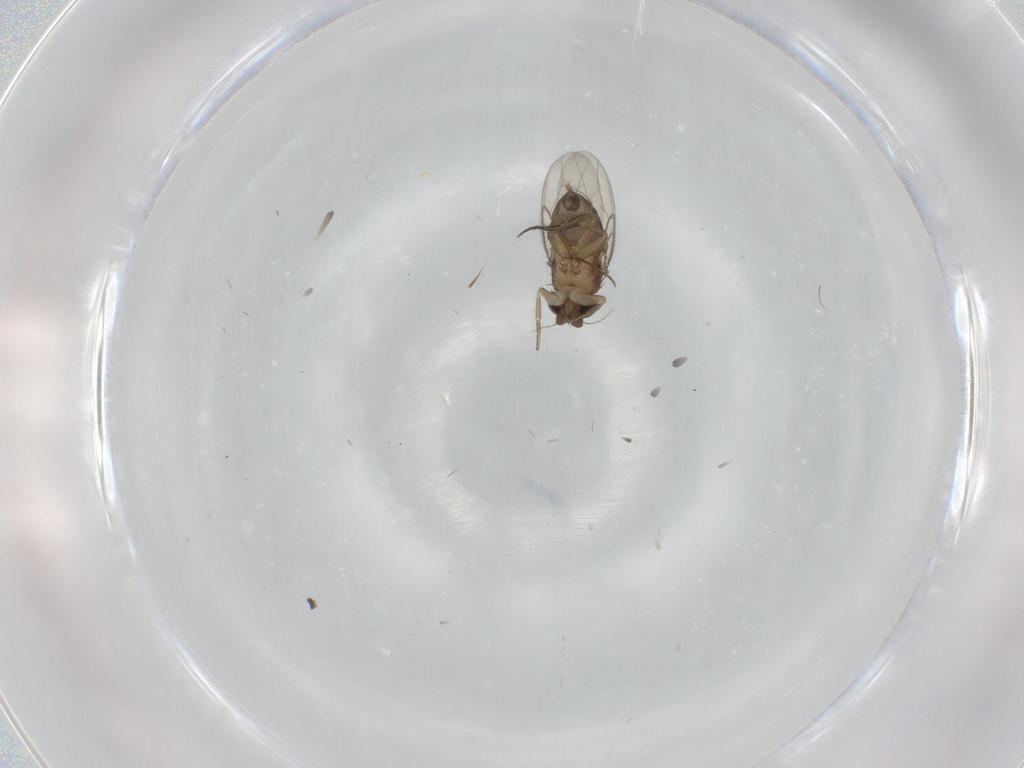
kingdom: Animalia
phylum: Arthropoda
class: Insecta
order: Diptera
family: Phoridae
